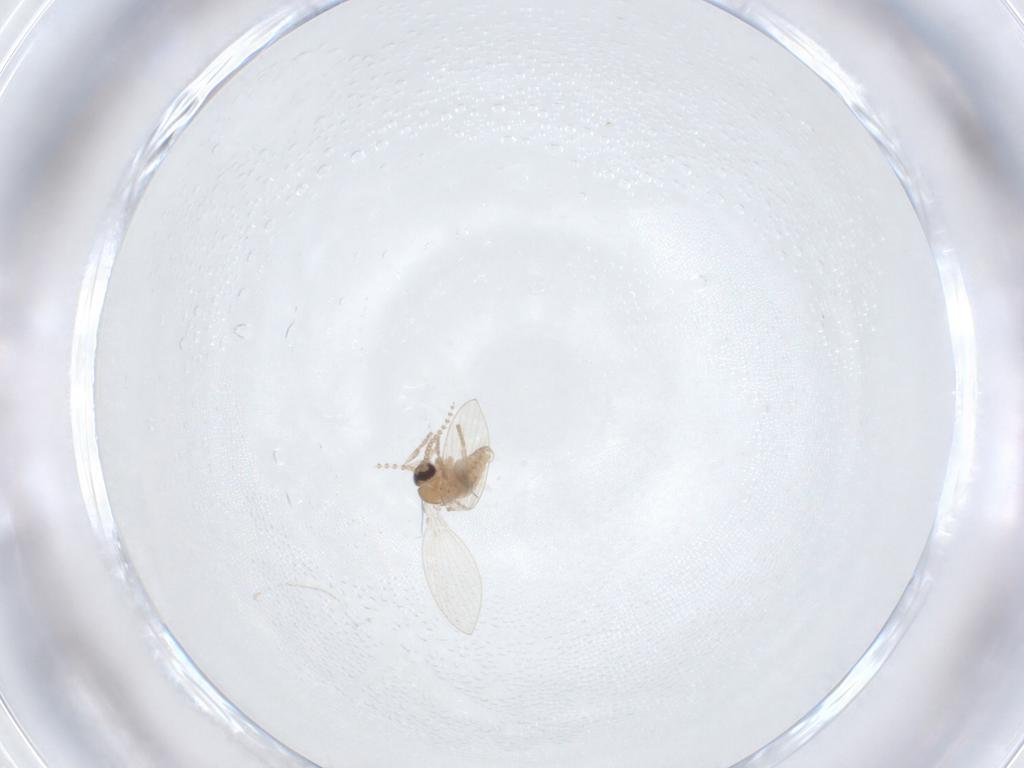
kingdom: Animalia
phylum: Arthropoda
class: Insecta
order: Diptera
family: Psychodidae
